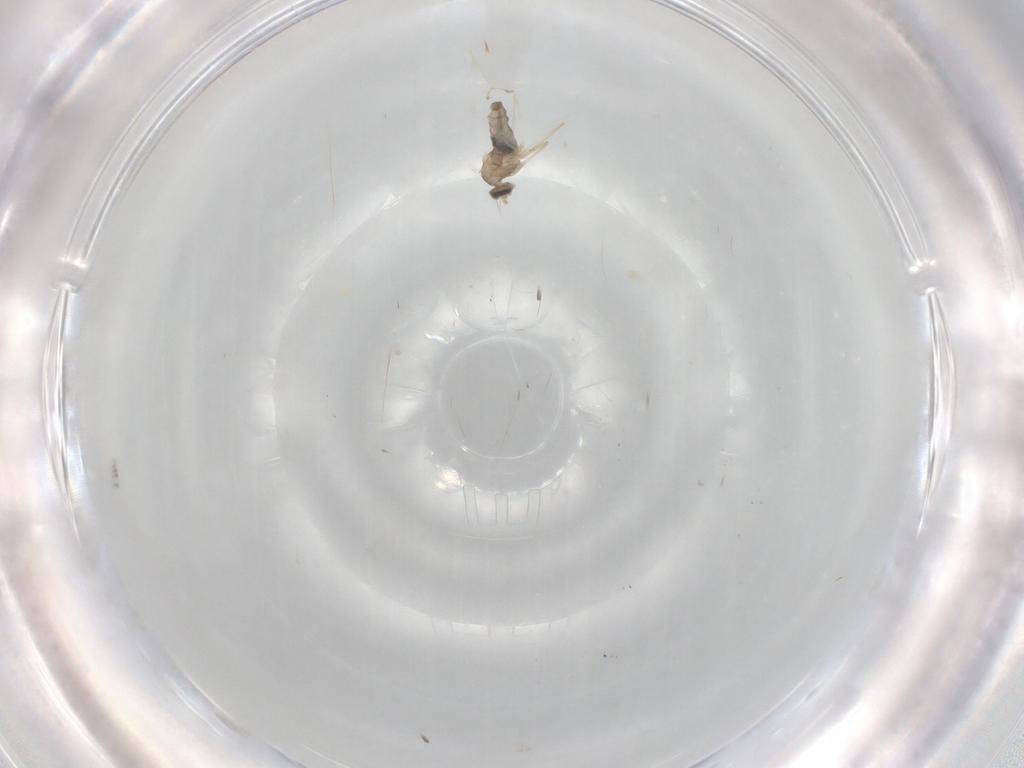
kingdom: Animalia
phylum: Arthropoda
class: Insecta
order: Diptera
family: Cecidomyiidae
